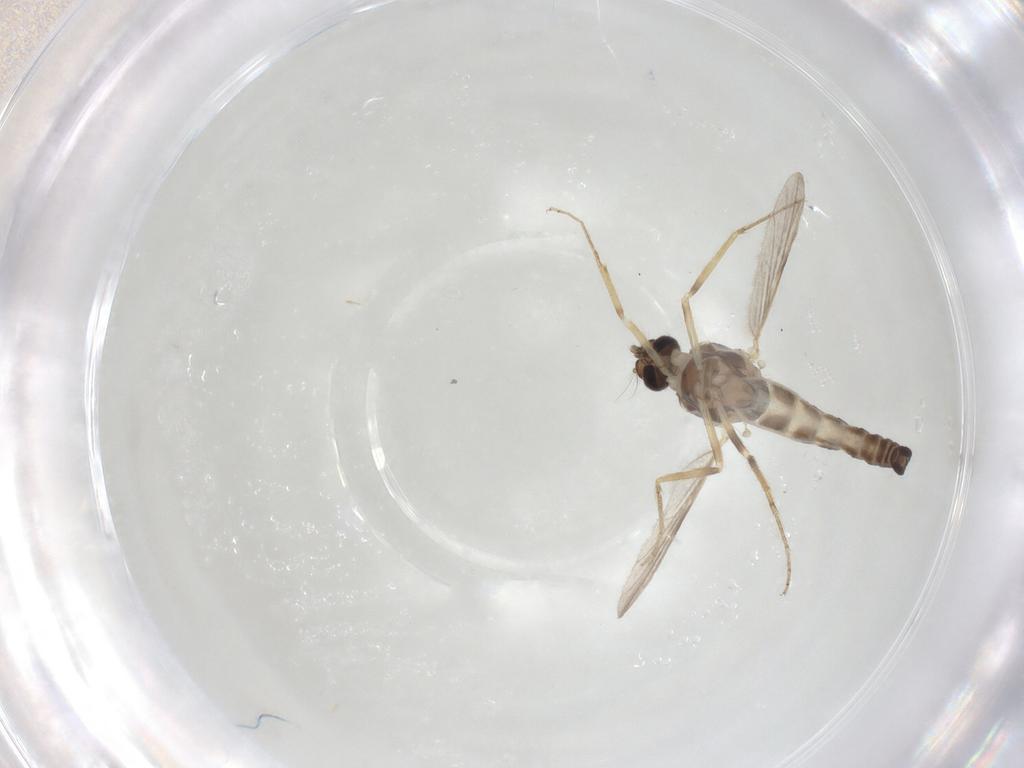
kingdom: Animalia
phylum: Arthropoda
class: Insecta
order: Diptera
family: Ceratopogonidae
